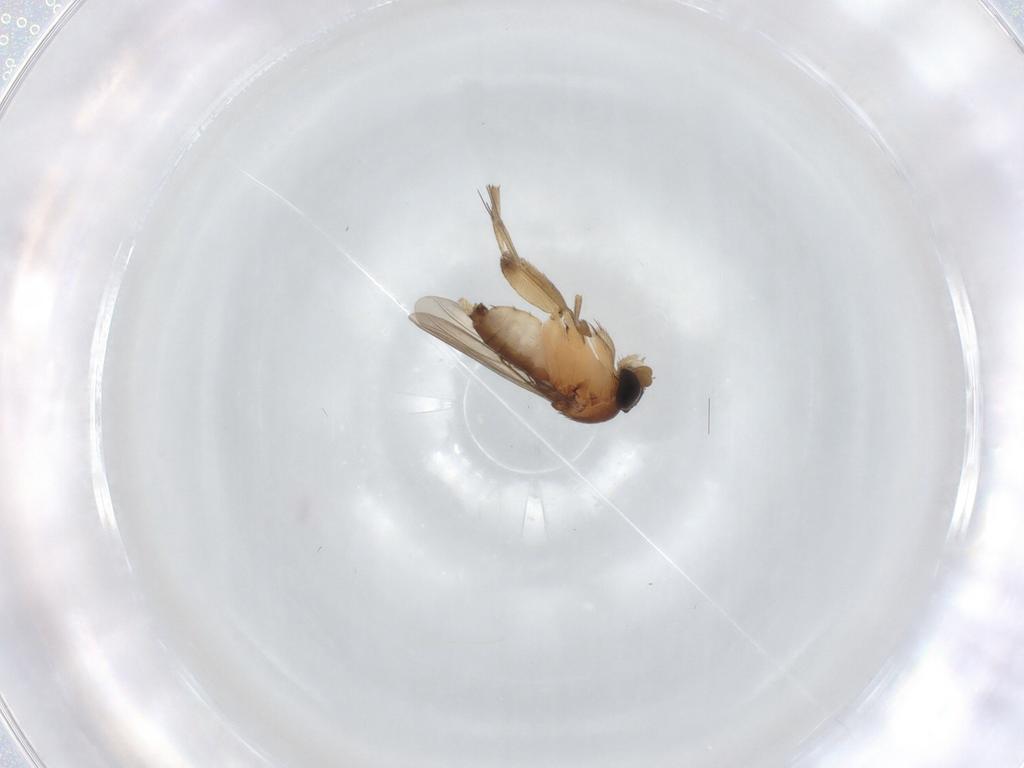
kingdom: Animalia
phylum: Arthropoda
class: Insecta
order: Diptera
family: Phoridae
